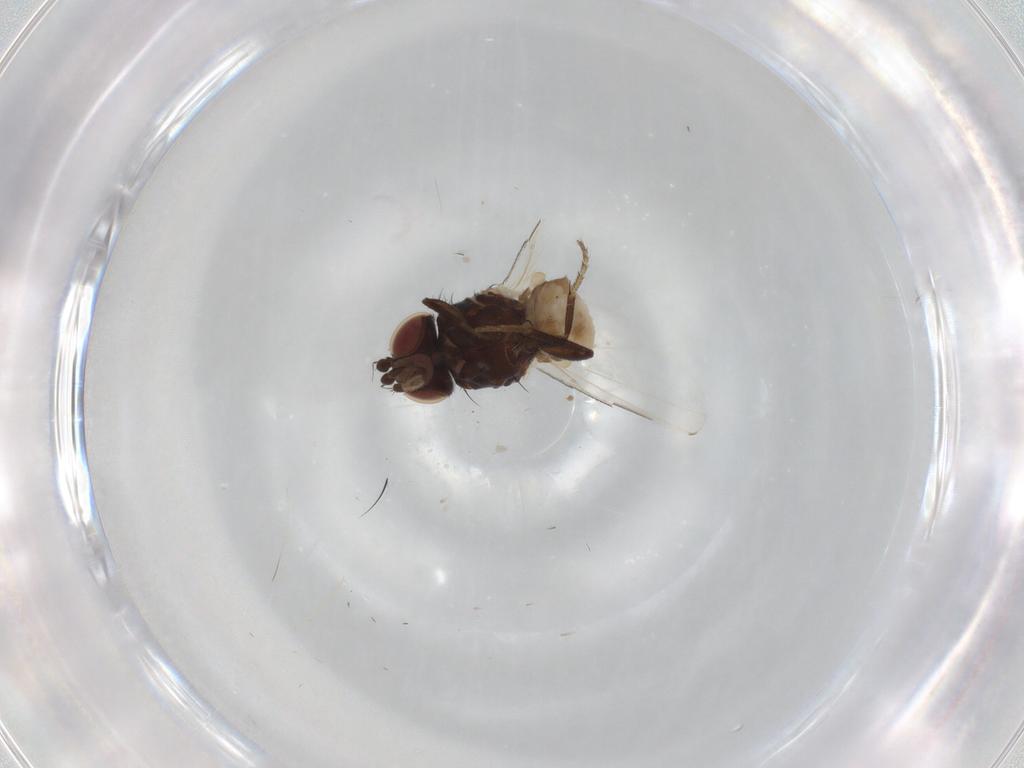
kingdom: Animalia
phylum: Arthropoda
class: Insecta
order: Diptera
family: Milichiidae
